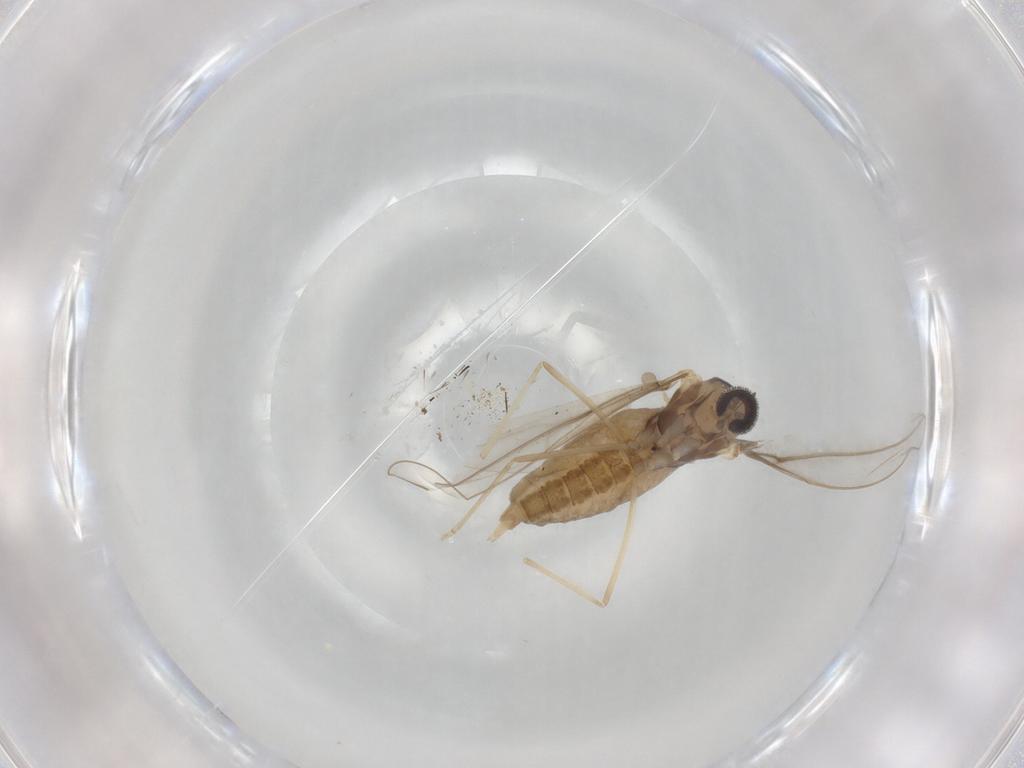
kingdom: Animalia
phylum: Arthropoda
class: Insecta
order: Diptera
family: Cecidomyiidae
